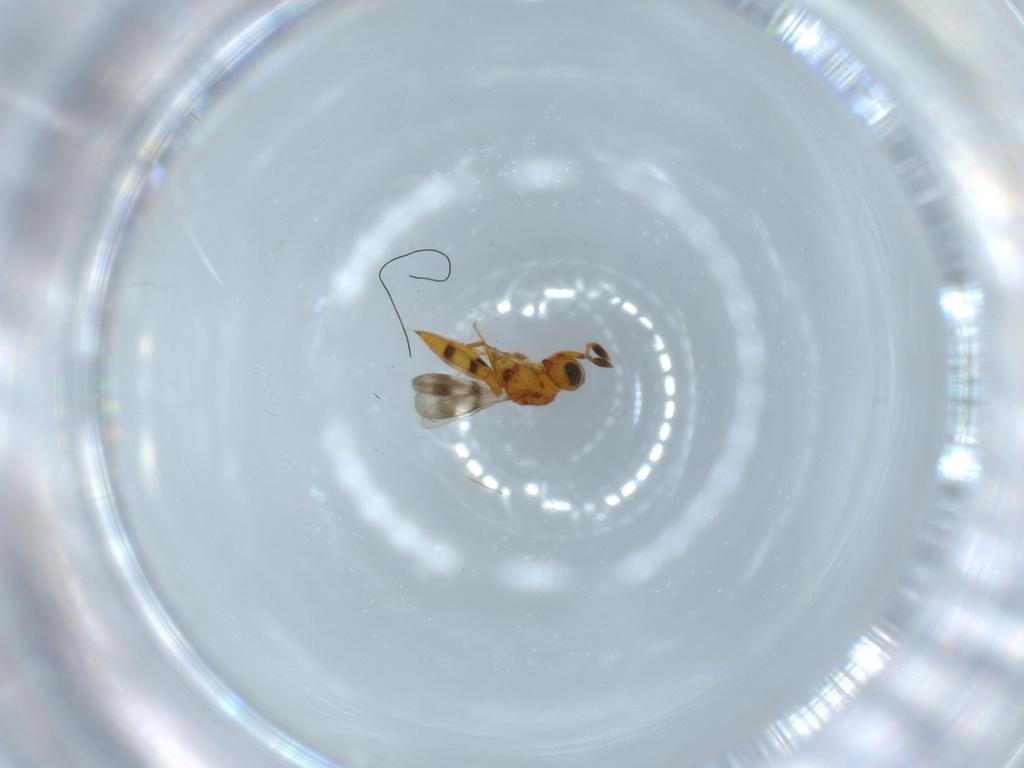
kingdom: Animalia
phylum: Arthropoda
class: Insecta
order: Hymenoptera
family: Scelionidae
